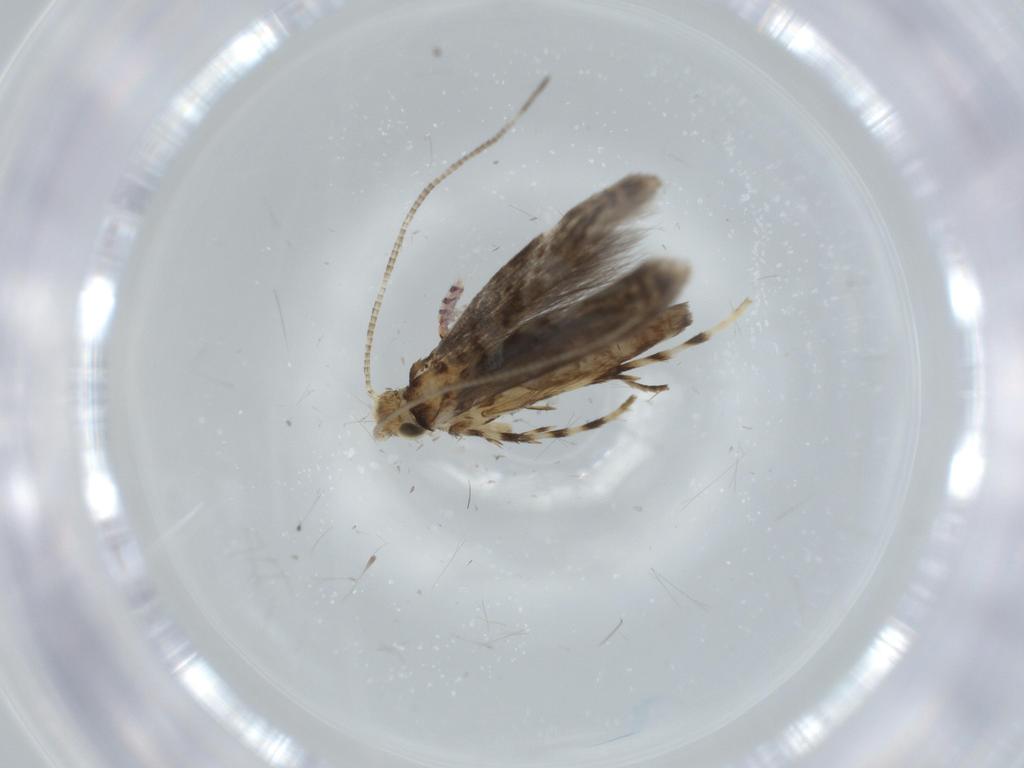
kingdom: Animalia
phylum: Arthropoda
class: Insecta
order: Lepidoptera
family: Gracillariidae
